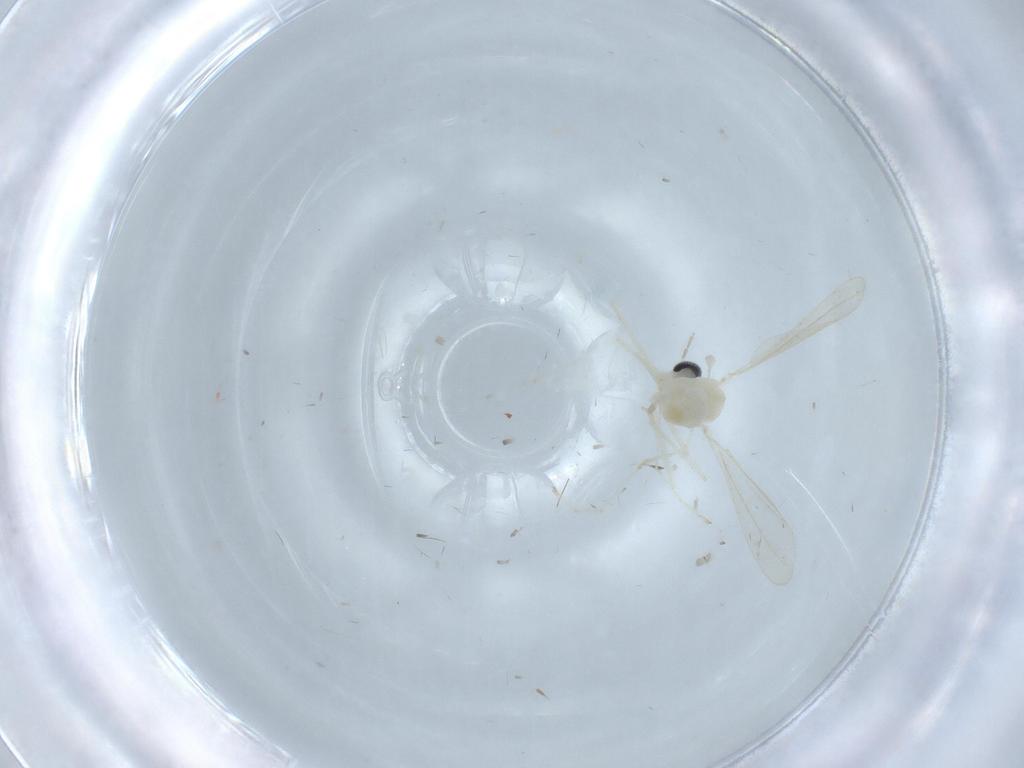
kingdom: Animalia
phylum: Arthropoda
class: Insecta
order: Diptera
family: Cecidomyiidae
